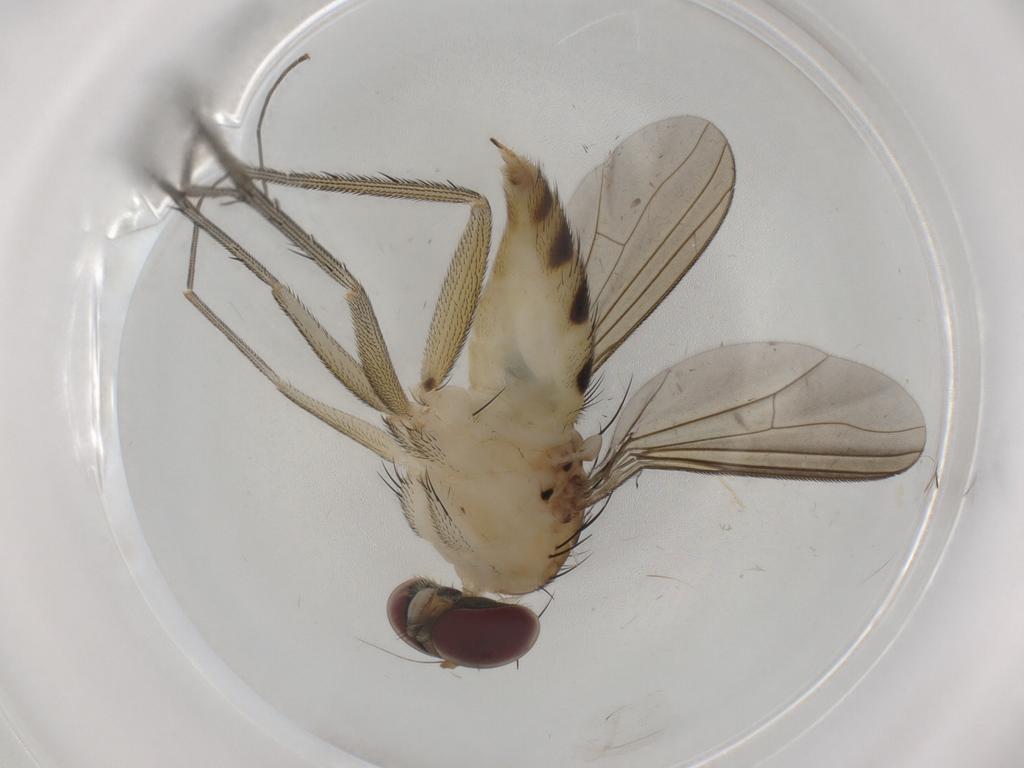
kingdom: Animalia
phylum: Arthropoda
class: Insecta
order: Diptera
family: Dolichopodidae
